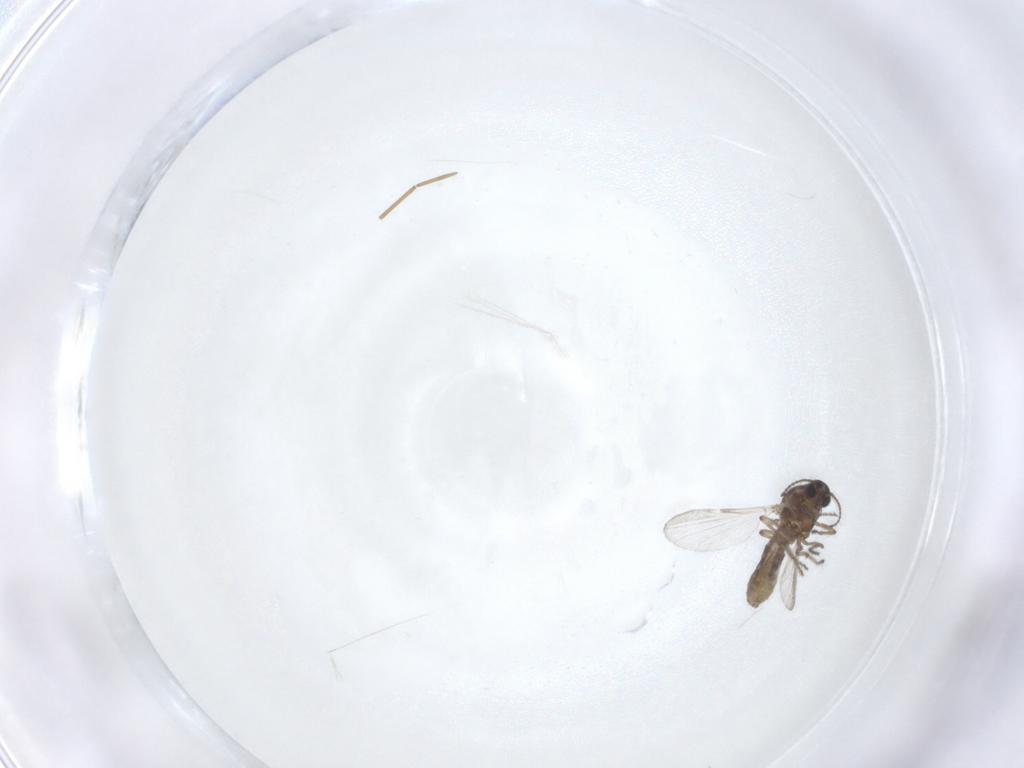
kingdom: Animalia
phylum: Arthropoda
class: Insecta
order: Diptera
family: Ceratopogonidae
